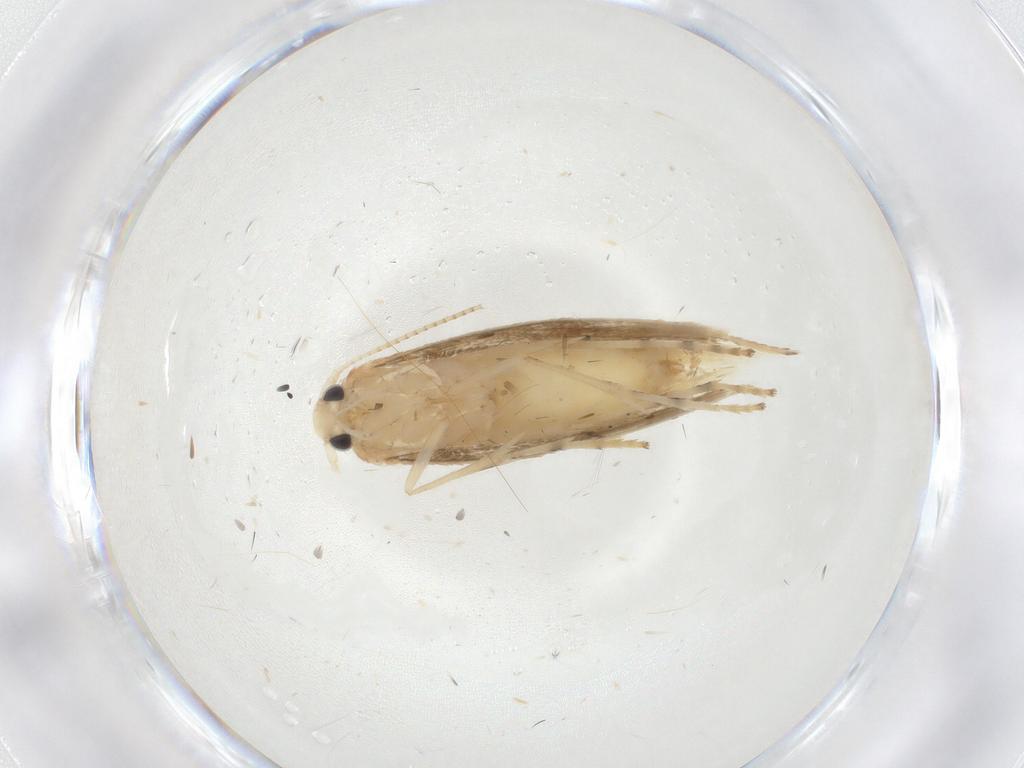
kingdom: Animalia
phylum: Arthropoda
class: Insecta
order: Lepidoptera
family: Gracillariidae
